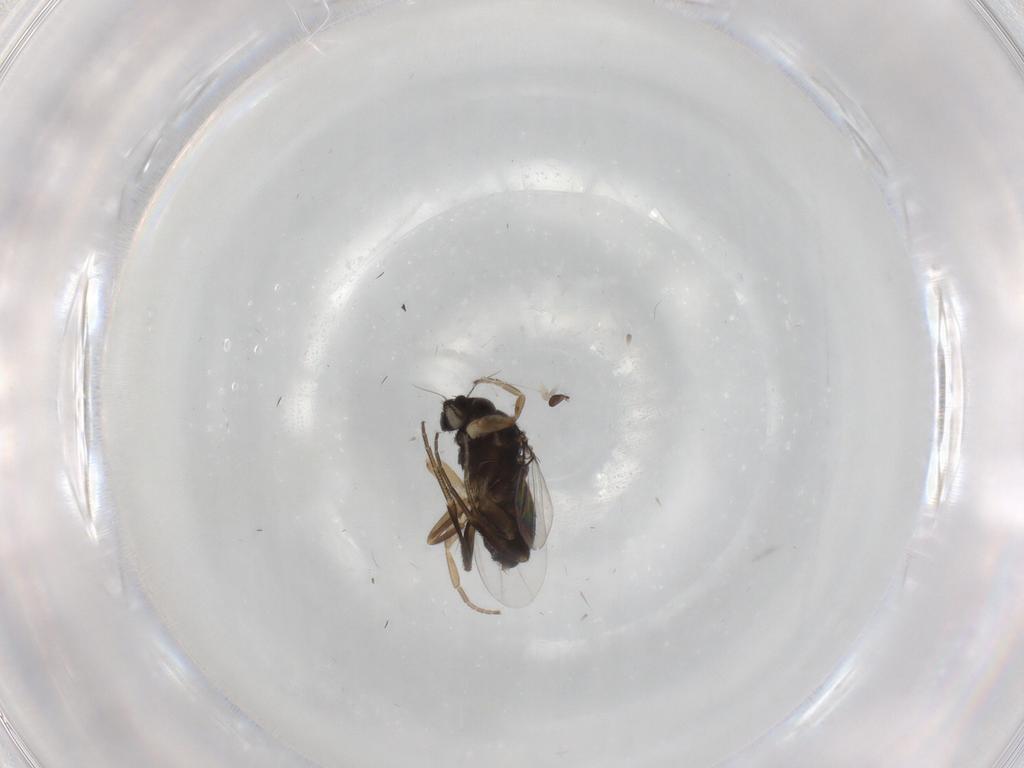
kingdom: Animalia
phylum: Arthropoda
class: Insecta
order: Diptera
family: Phoridae
